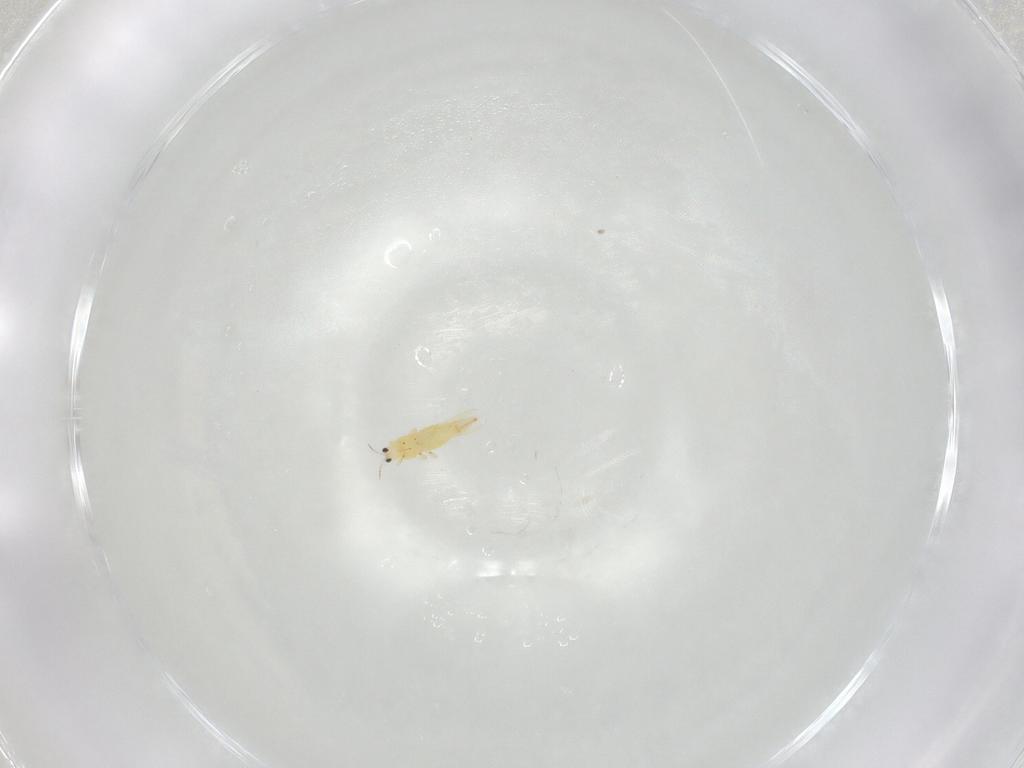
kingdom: Animalia
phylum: Arthropoda
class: Insecta
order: Thysanoptera
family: Thripidae
